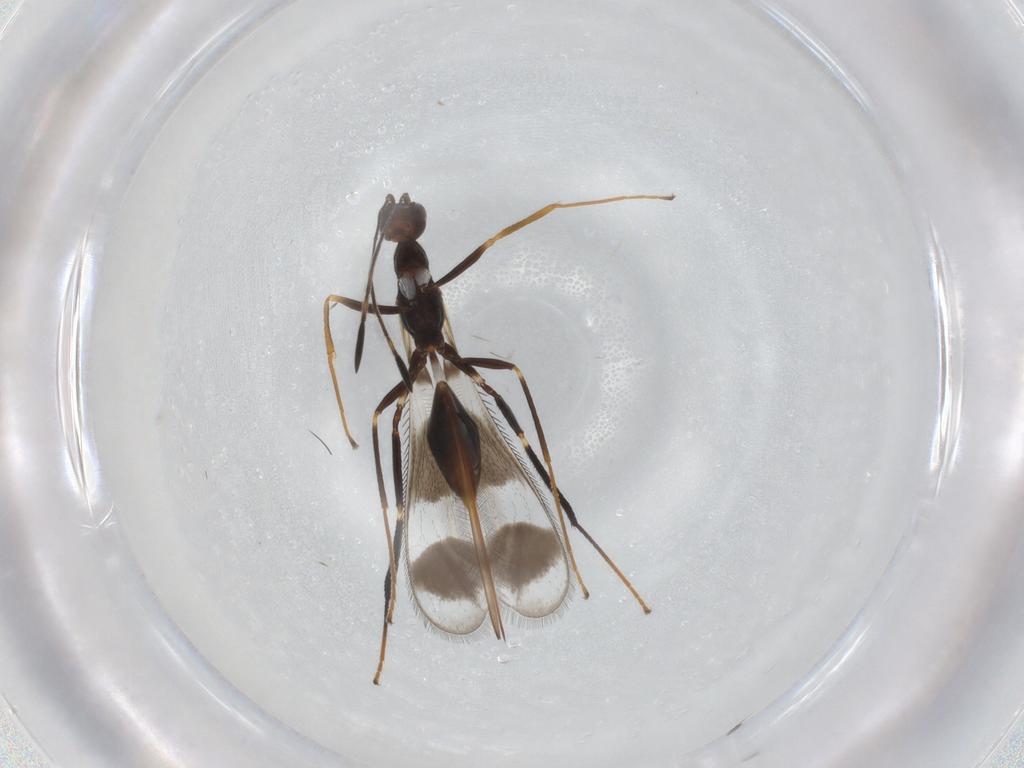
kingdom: Animalia
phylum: Arthropoda
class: Insecta
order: Hymenoptera
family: Mymaridae
